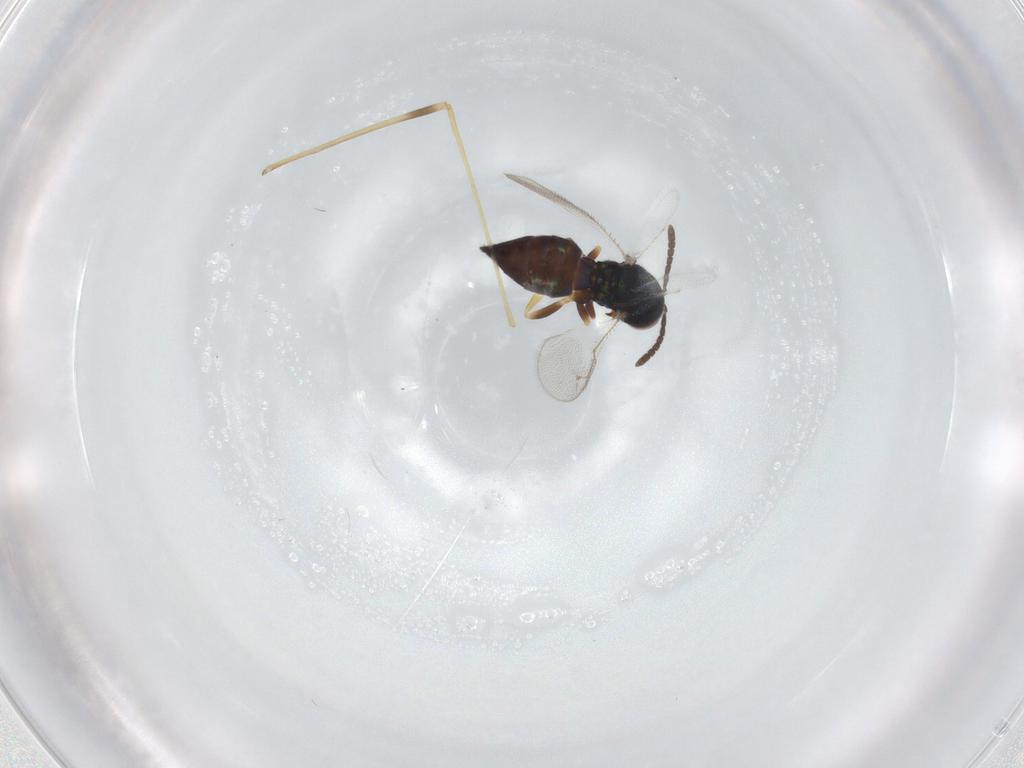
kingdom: Animalia
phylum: Arthropoda
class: Insecta
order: Hymenoptera
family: Pteromalidae
